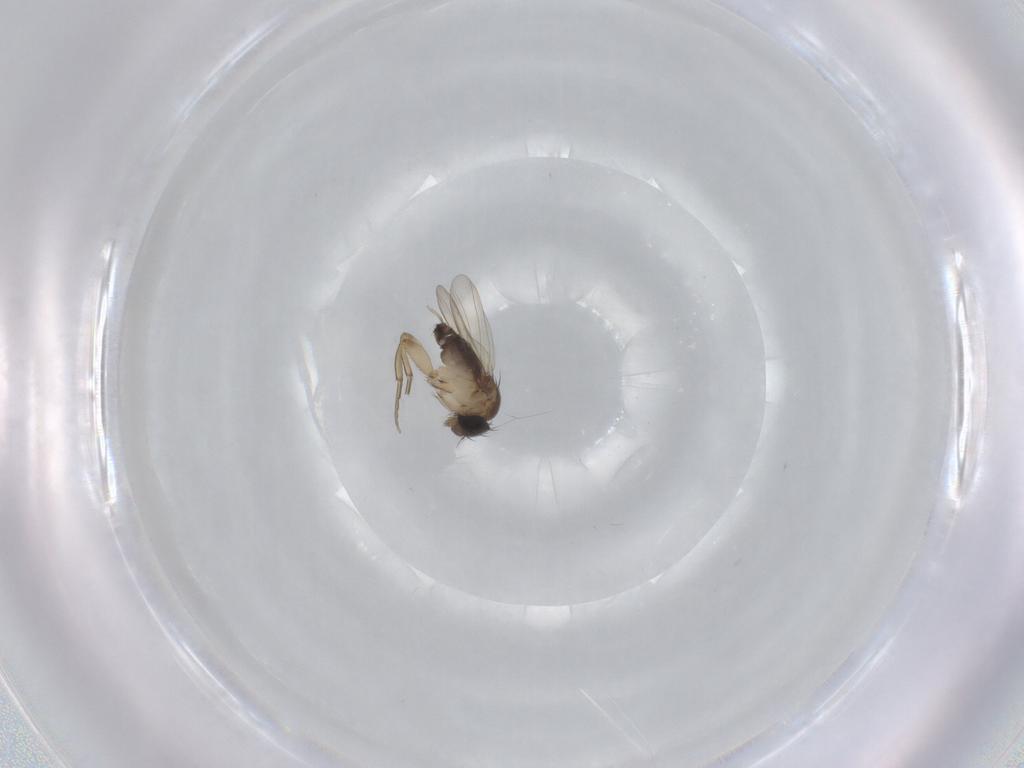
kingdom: Animalia
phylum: Arthropoda
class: Insecta
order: Diptera
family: Phoridae
